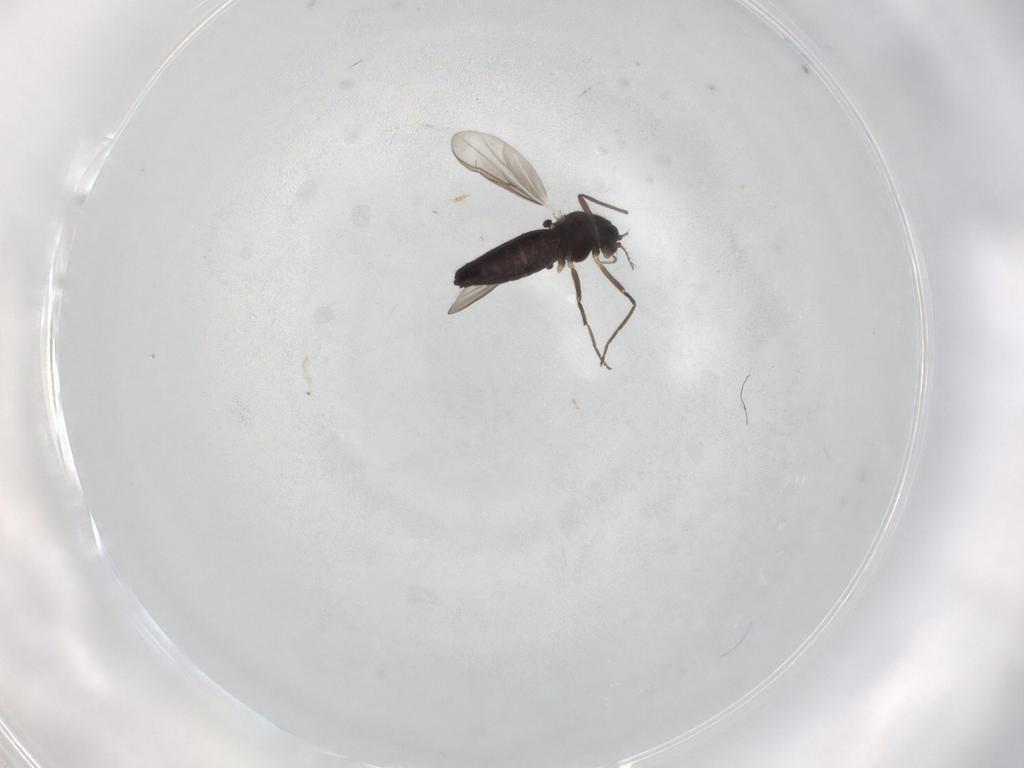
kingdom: Animalia
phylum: Arthropoda
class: Insecta
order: Diptera
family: Chironomidae
